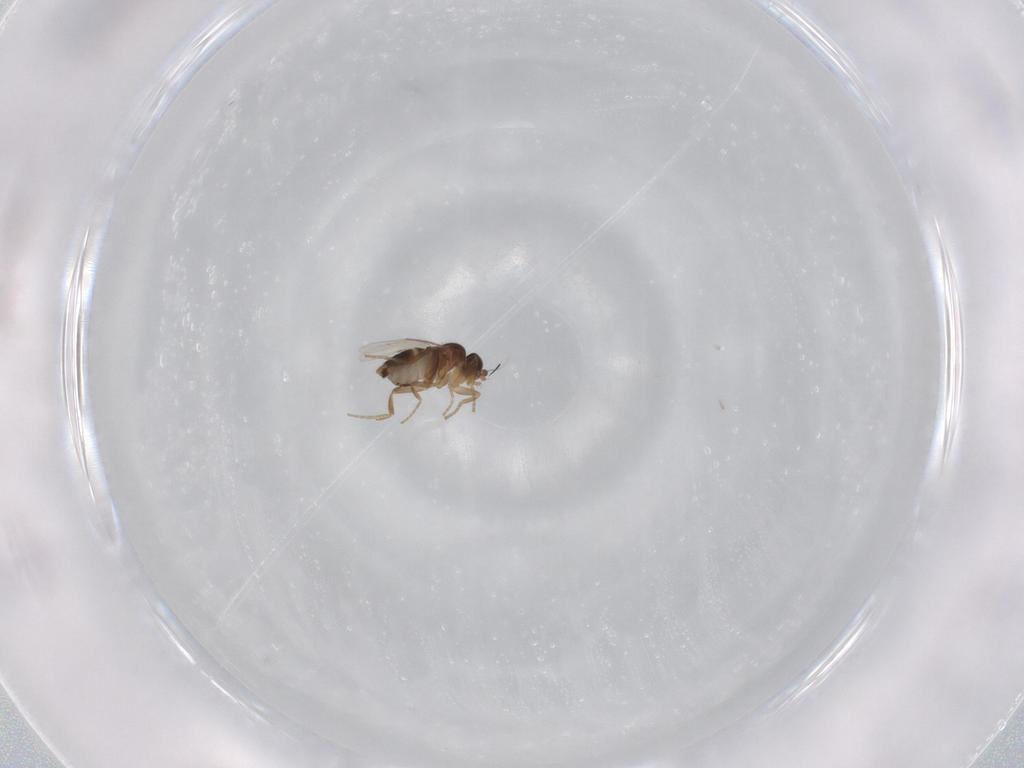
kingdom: Animalia
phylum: Arthropoda
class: Insecta
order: Diptera
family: Phoridae
